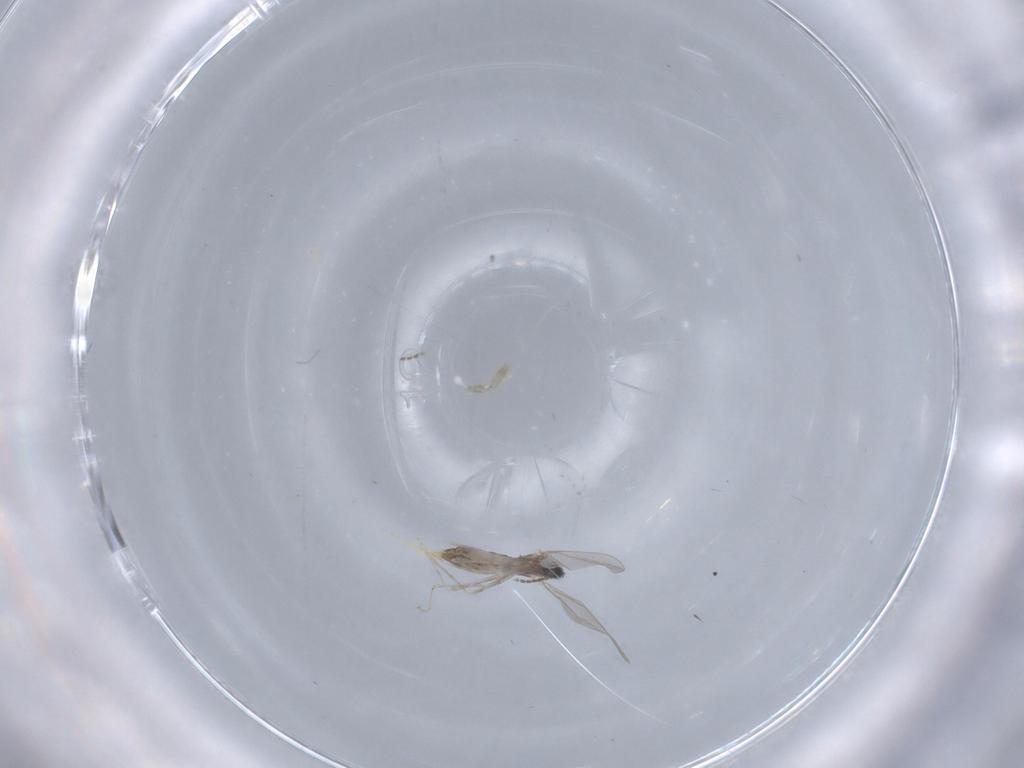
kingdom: Animalia
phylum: Arthropoda
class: Insecta
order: Diptera
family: Cecidomyiidae
